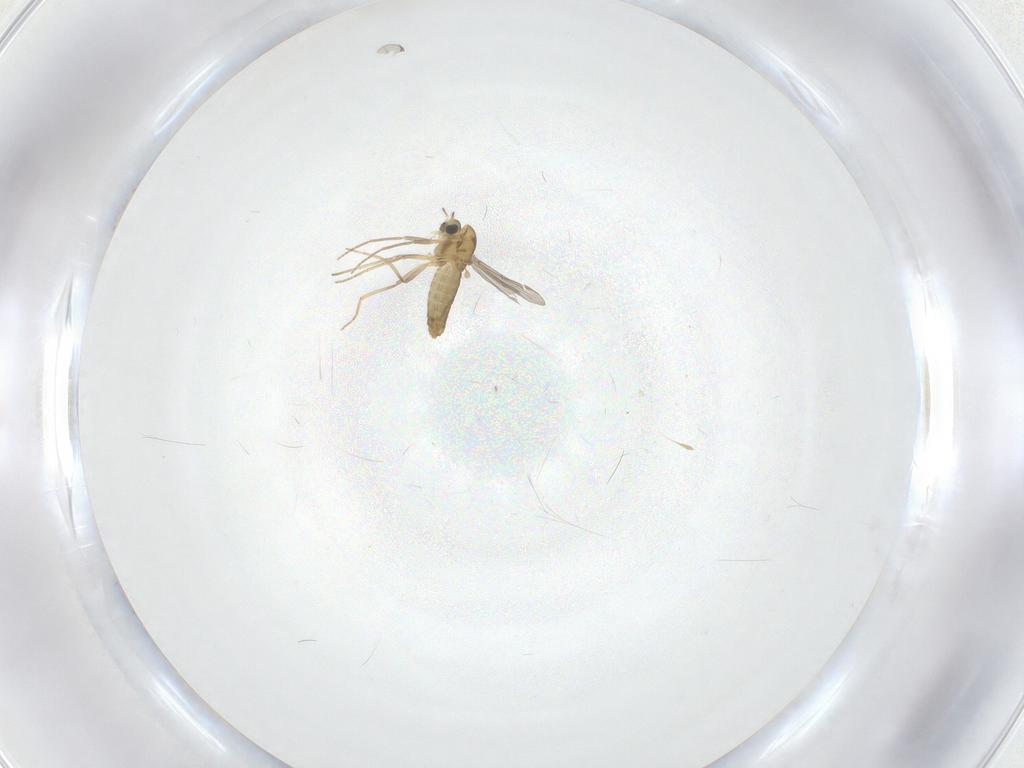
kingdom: Animalia
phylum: Arthropoda
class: Insecta
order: Diptera
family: Chironomidae
